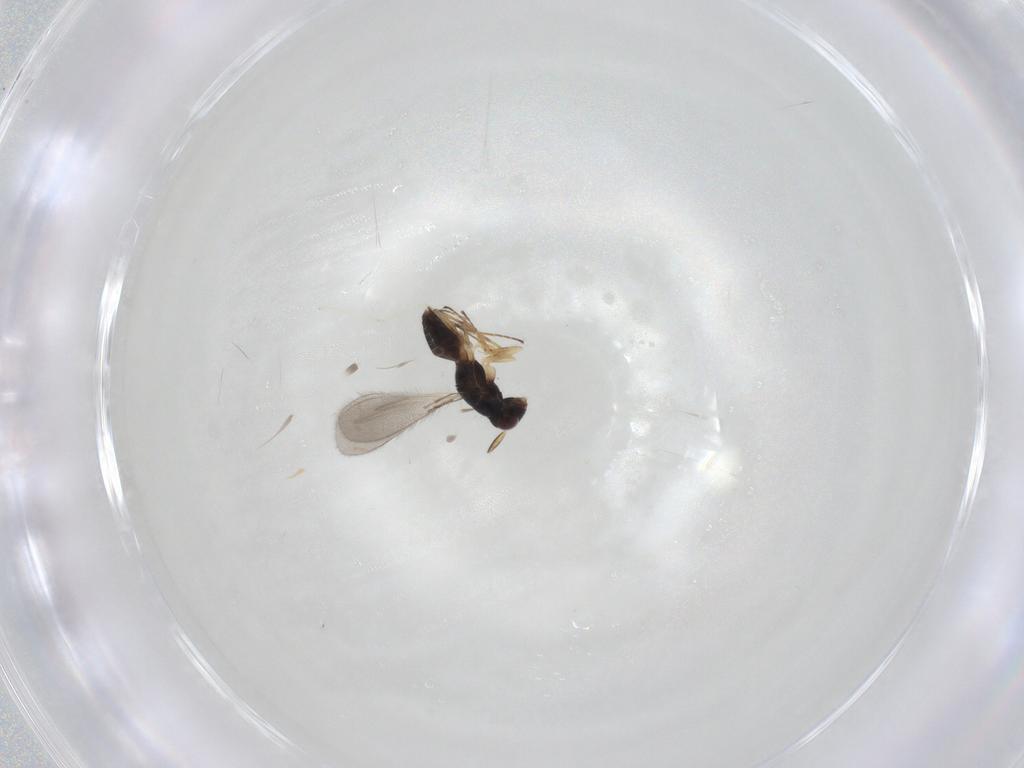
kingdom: Animalia
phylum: Arthropoda
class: Insecta
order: Hymenoptera
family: Mymaridae
